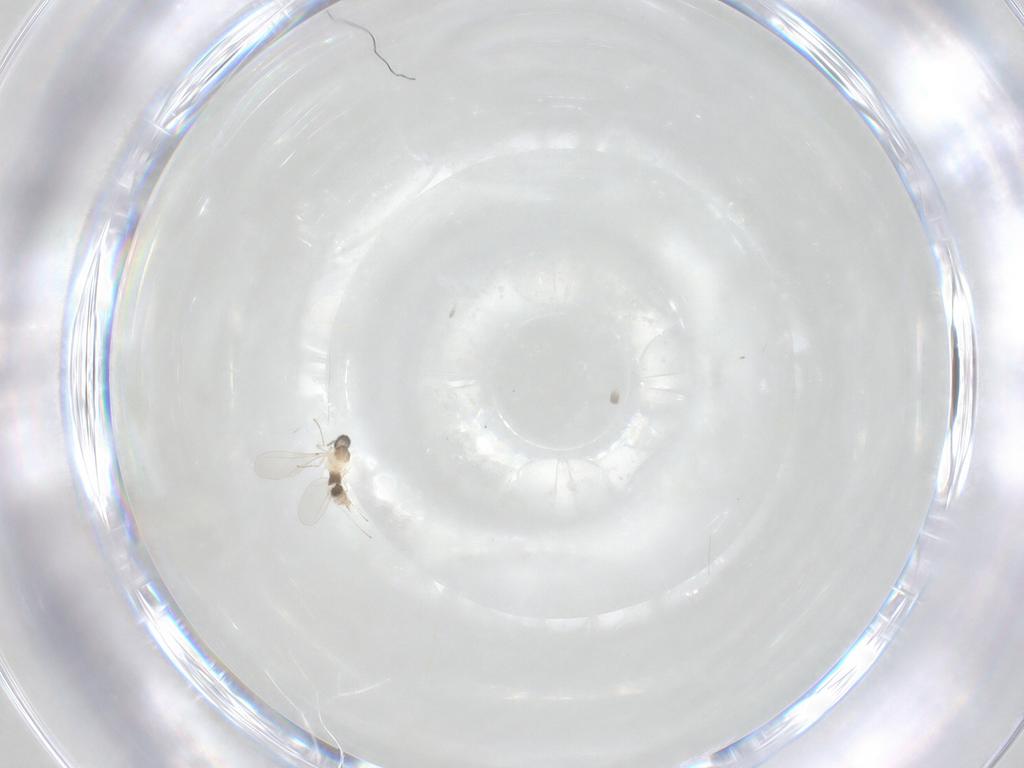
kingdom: Animalia
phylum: Arthropoda
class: Insecta
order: Diptera
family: Cecidomyiidae
